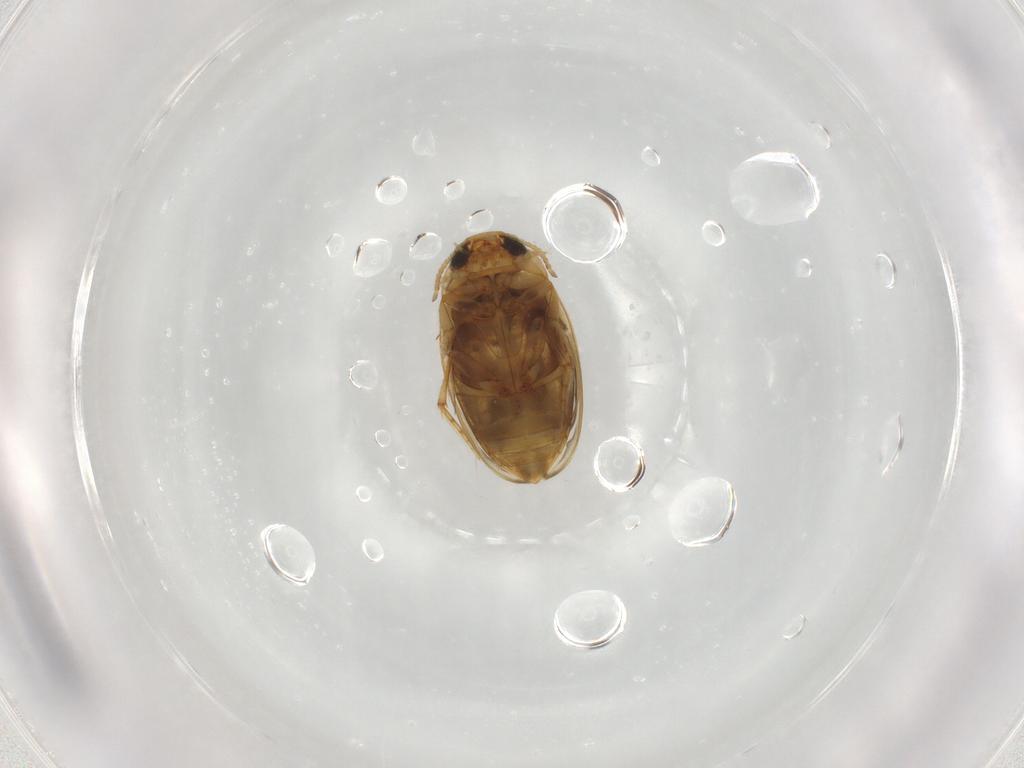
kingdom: Animalia
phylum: Arthropoda
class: Insecta
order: Coleoptera
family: Dytiscidae
